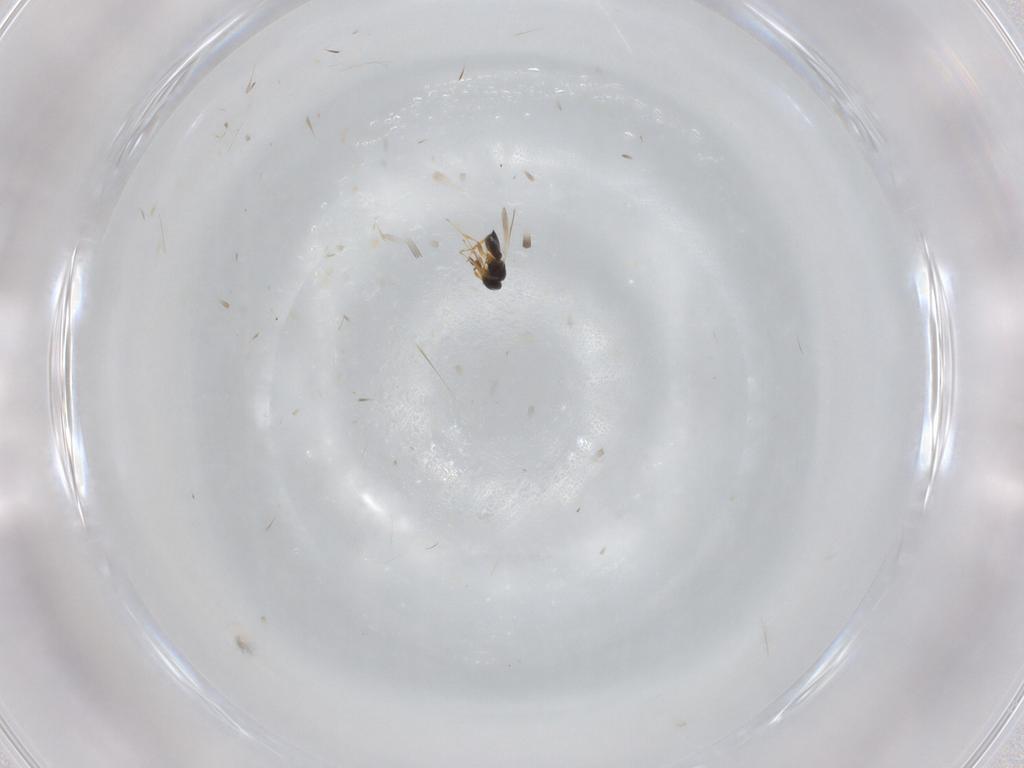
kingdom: Animalia
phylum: Arthropoda
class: Insecta
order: Hymenoptera
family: Platygastridae
